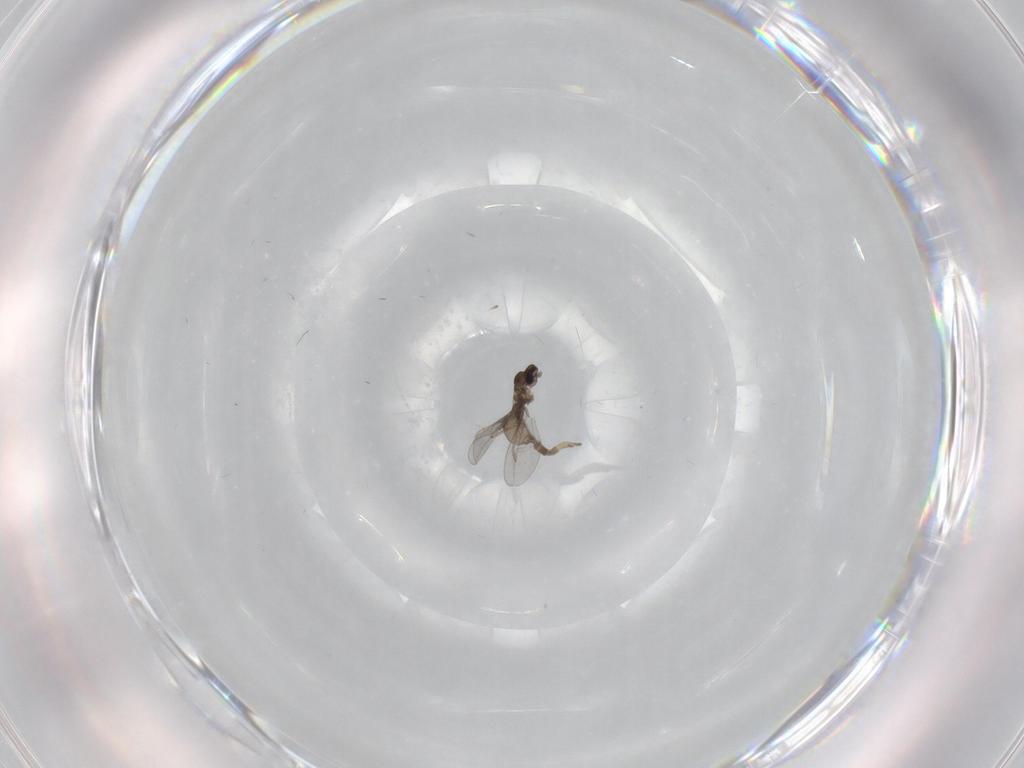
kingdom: Animalia
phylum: Arthropoda
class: Insecta
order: Diptera
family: Chironomidae
